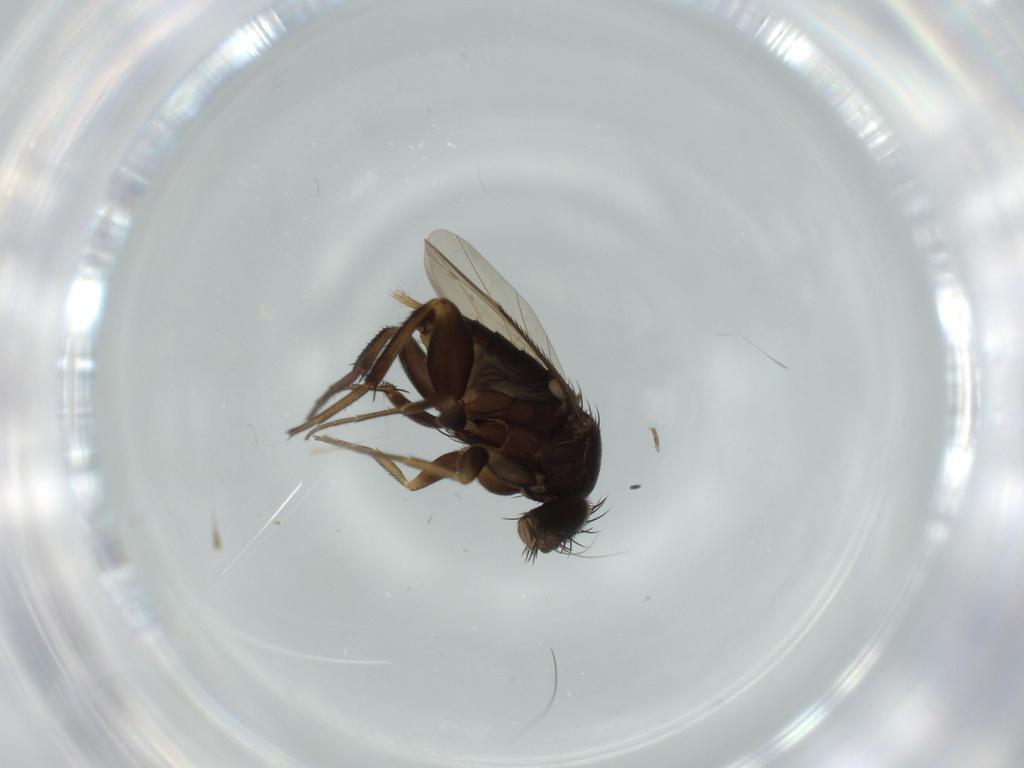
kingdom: Animalia
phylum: Arthropoda
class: Insecta
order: Diptera
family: Phoridae
